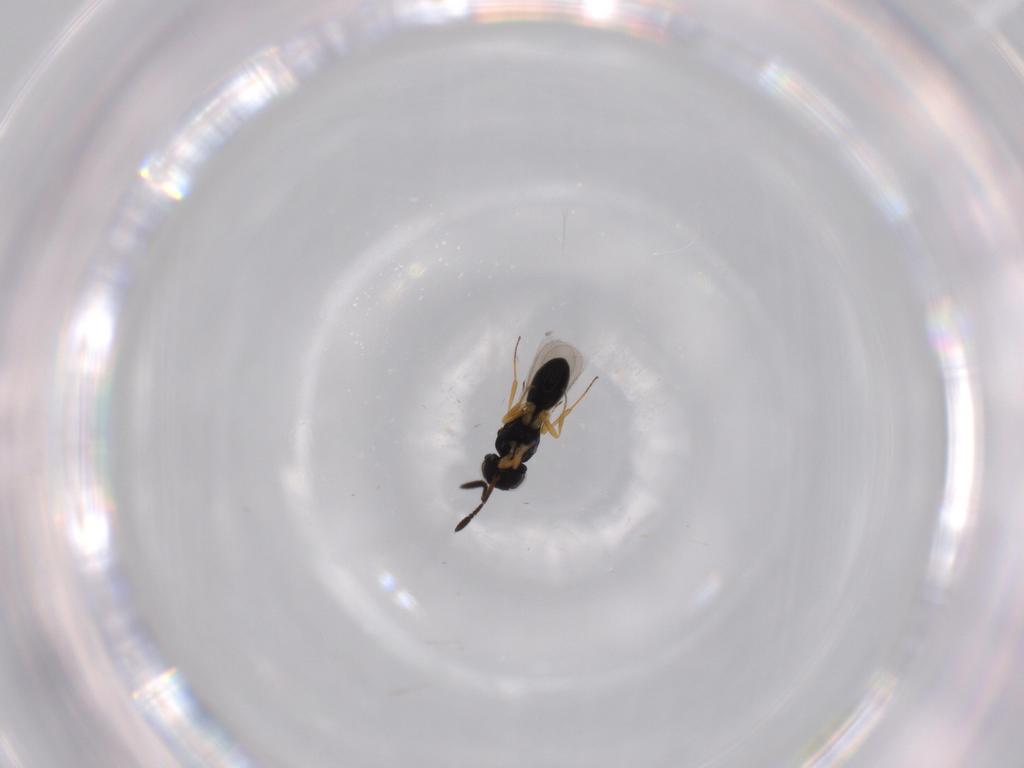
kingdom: Animalia
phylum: Arthropoda
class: Insecta
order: Hymenoptera
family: Scelionidae
